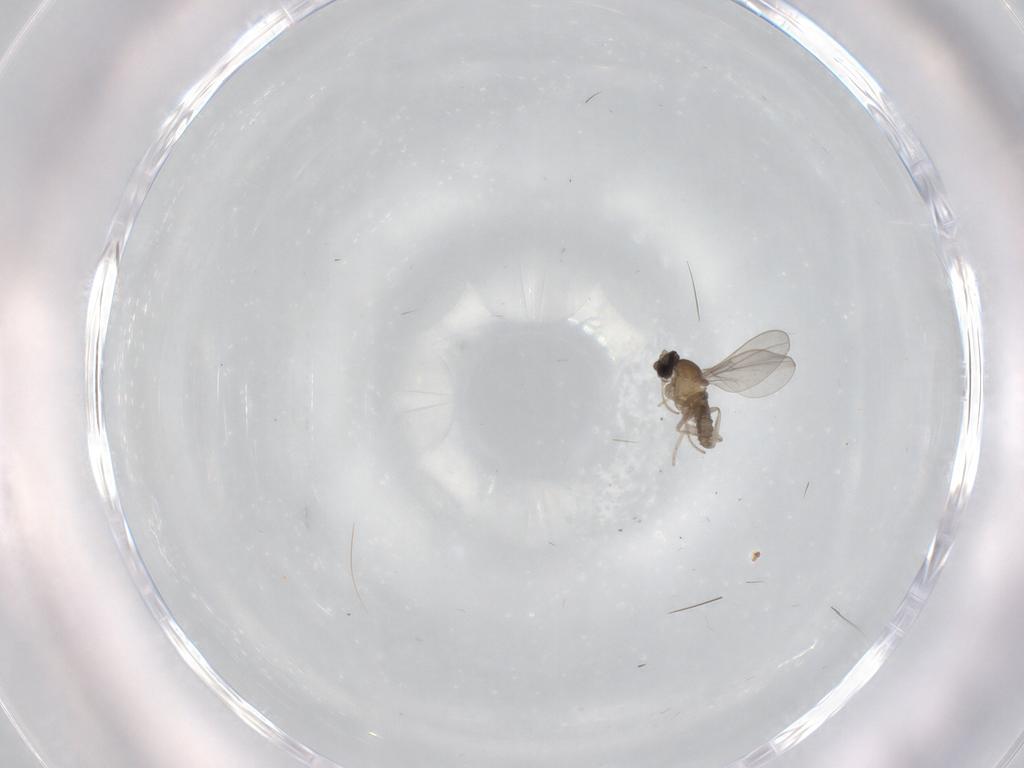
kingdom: Animalia
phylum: Arthropoda
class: Insecta
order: Diptera
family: Cecidomyiidae
